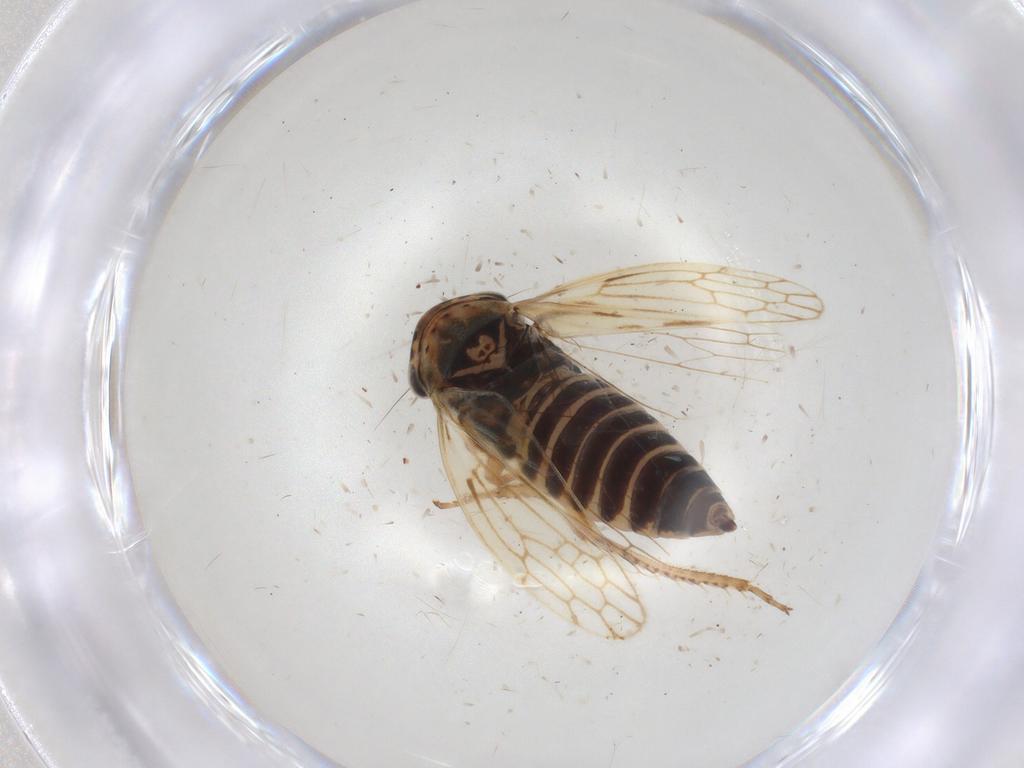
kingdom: Animalia
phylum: Arthropoda
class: Insecta
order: Hemiptera
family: Cicadellidae
